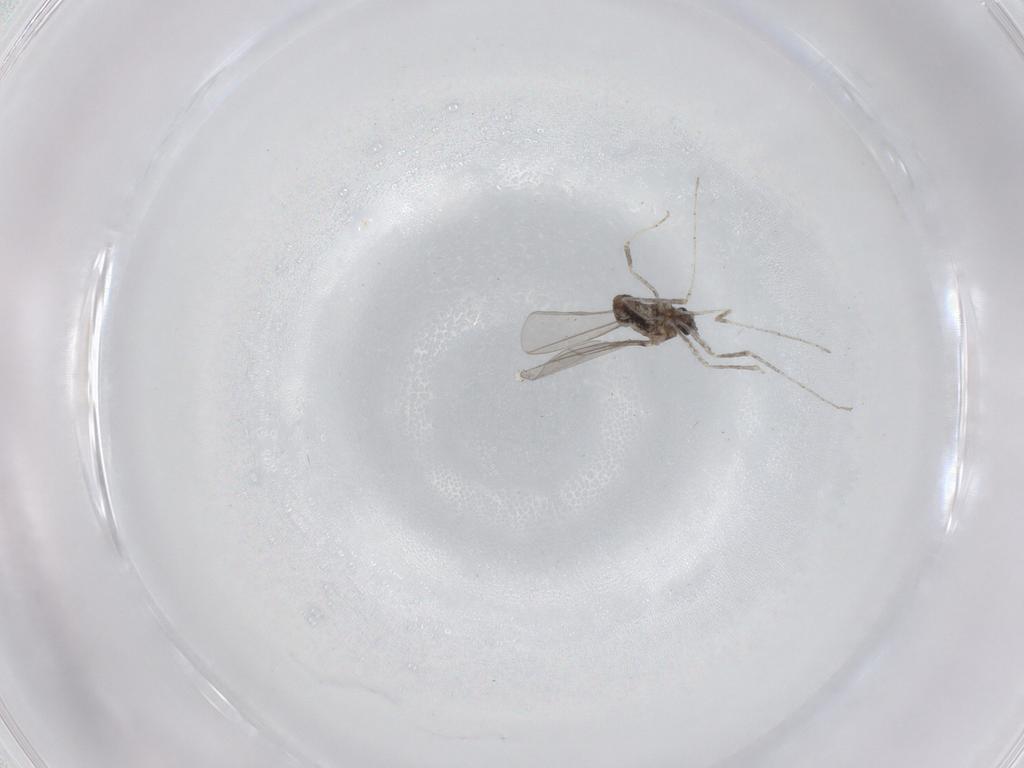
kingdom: Animalia
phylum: Arthropoda
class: Insecta
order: Diptera
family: Cecidomyiidae
